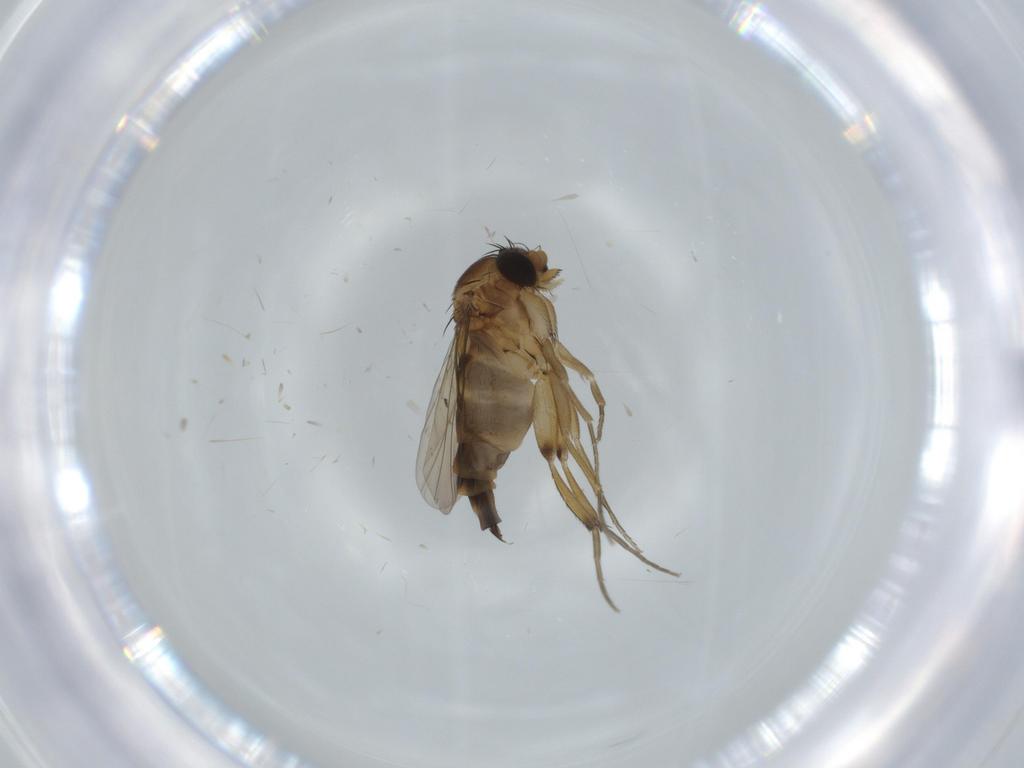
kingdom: Animalia
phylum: Arthropoda
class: Insecta
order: Diptera
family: Phoridae
